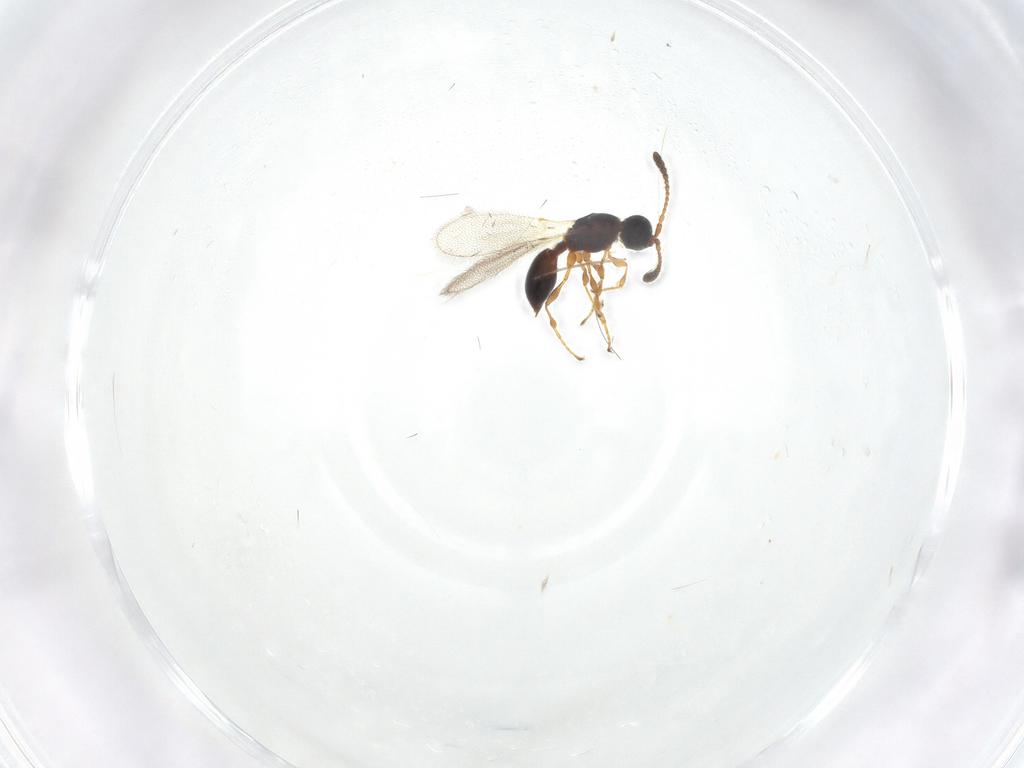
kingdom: Animalia
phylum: Arthropoda
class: Insecta
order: Hymenoptera
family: Diapriidae
